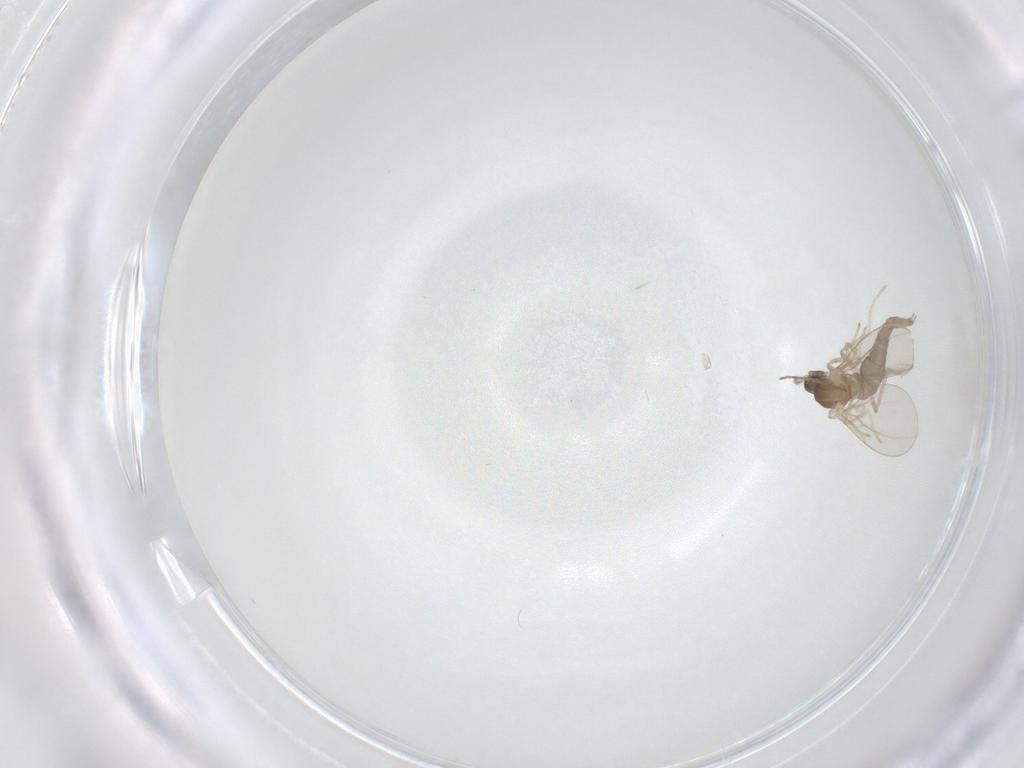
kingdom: Animalia
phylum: Arthropoda
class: Insecta
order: Diptera
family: Cecidomyiidae
